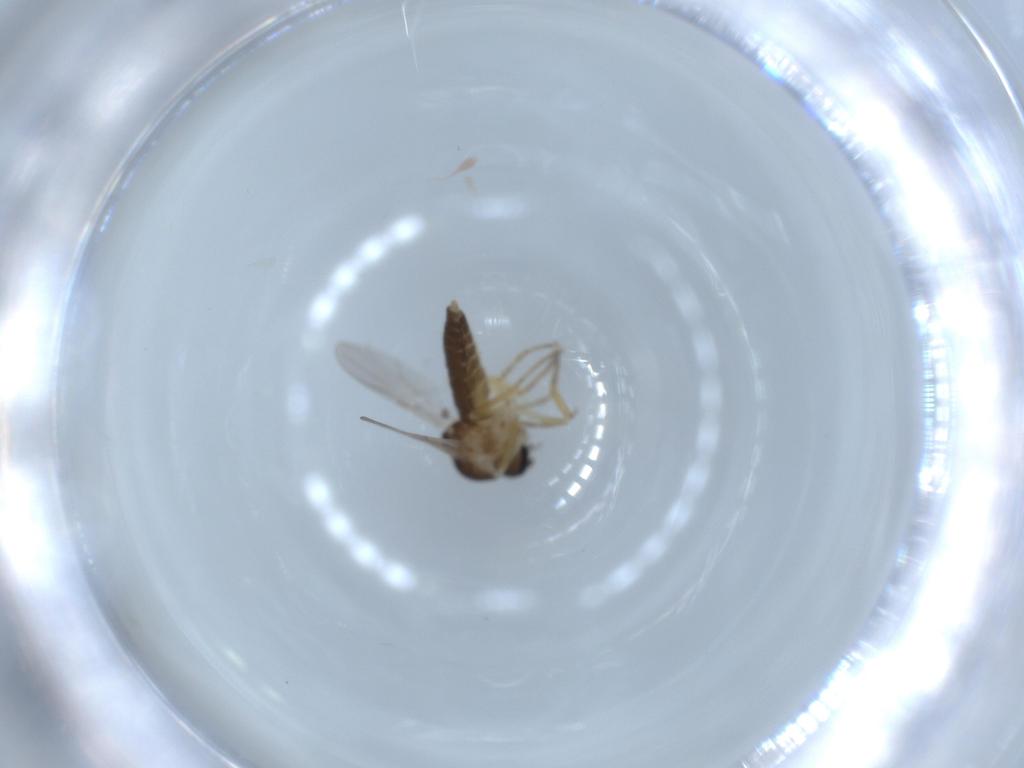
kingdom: Animalia
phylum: Arthropoda
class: Insecta
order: Diptera
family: Ceratopogonidae
